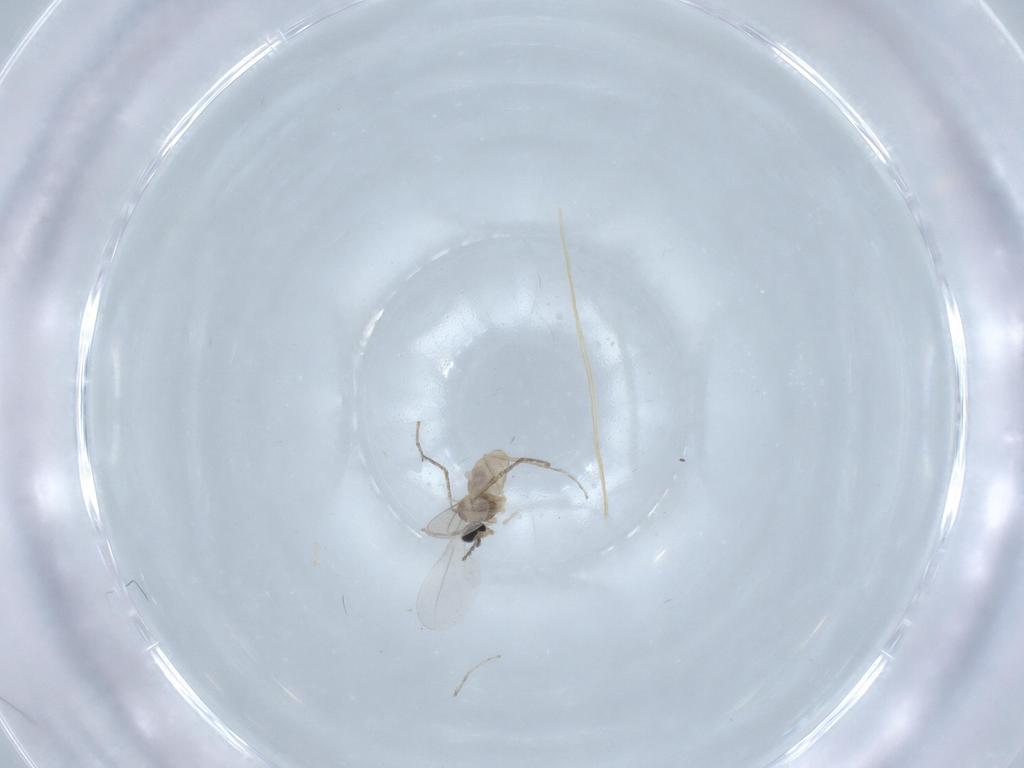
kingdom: Animalia
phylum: Arthropoda
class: Insecta
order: Diptera
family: Cecidomyiidae
